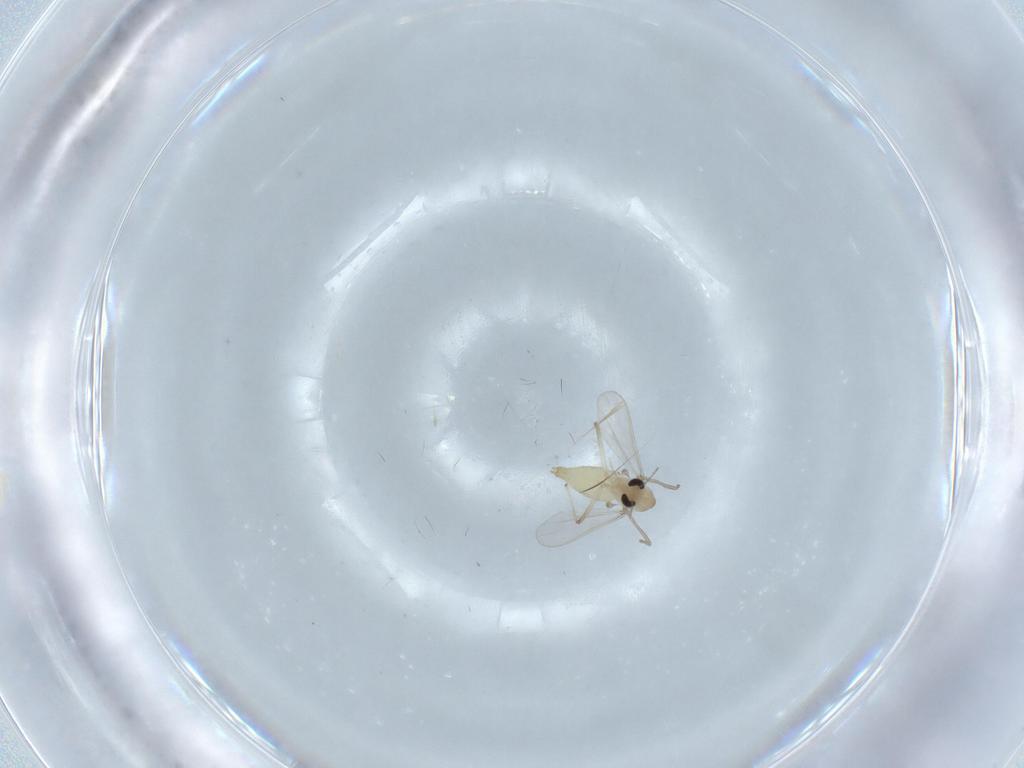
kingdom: Animalia
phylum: Arthropoda
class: Insecta
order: Diptera
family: Chironomidae
